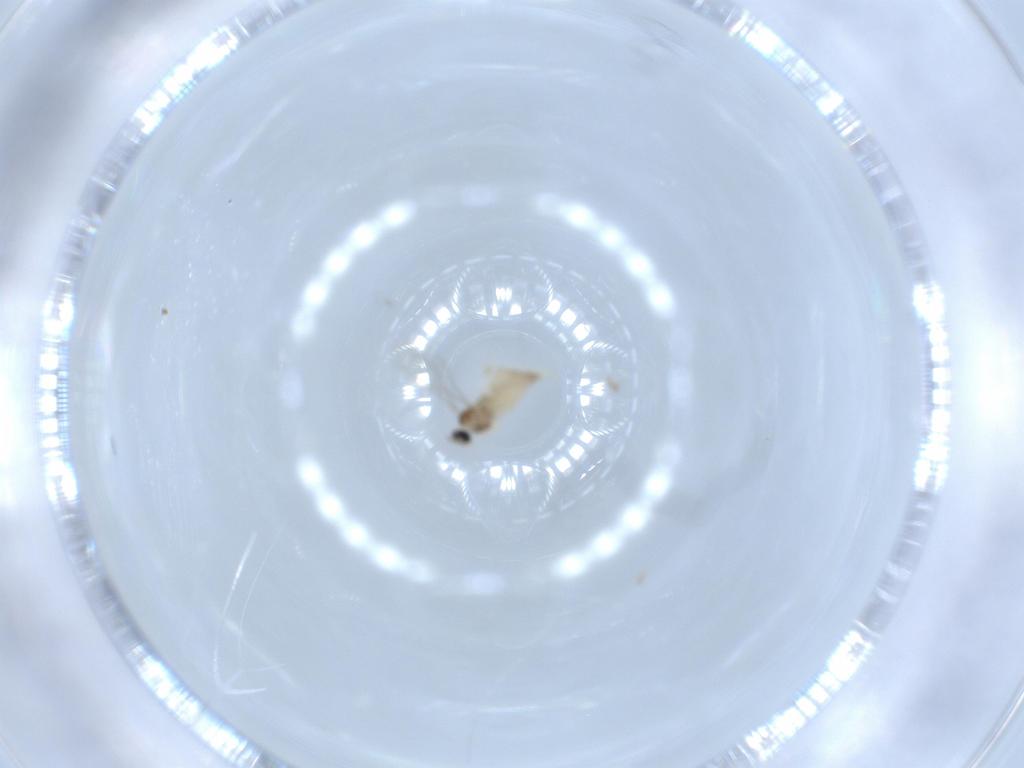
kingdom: Animalia
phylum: Arthropoda
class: Insecta
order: Diptera
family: Cecidomyiidae
